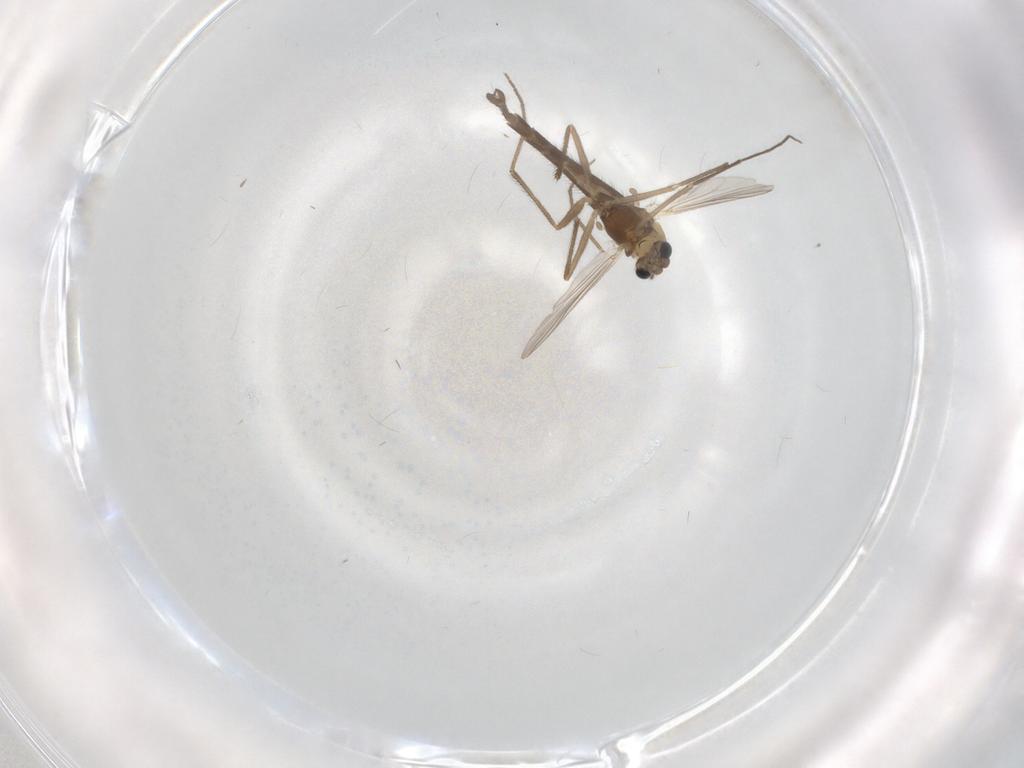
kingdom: Animalia
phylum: Arthropoda
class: Insecta
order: Diptera
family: Chironomidae
